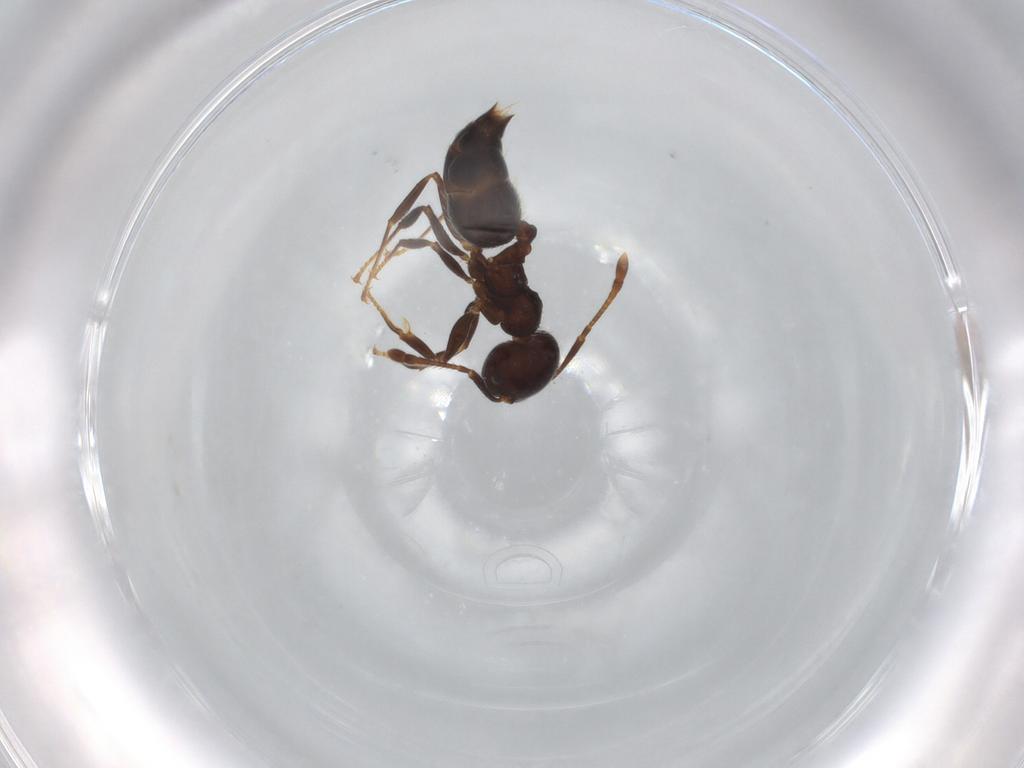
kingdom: Animalia
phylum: Arthropoda
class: Insecta
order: Hymenoptera
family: Formicidae
